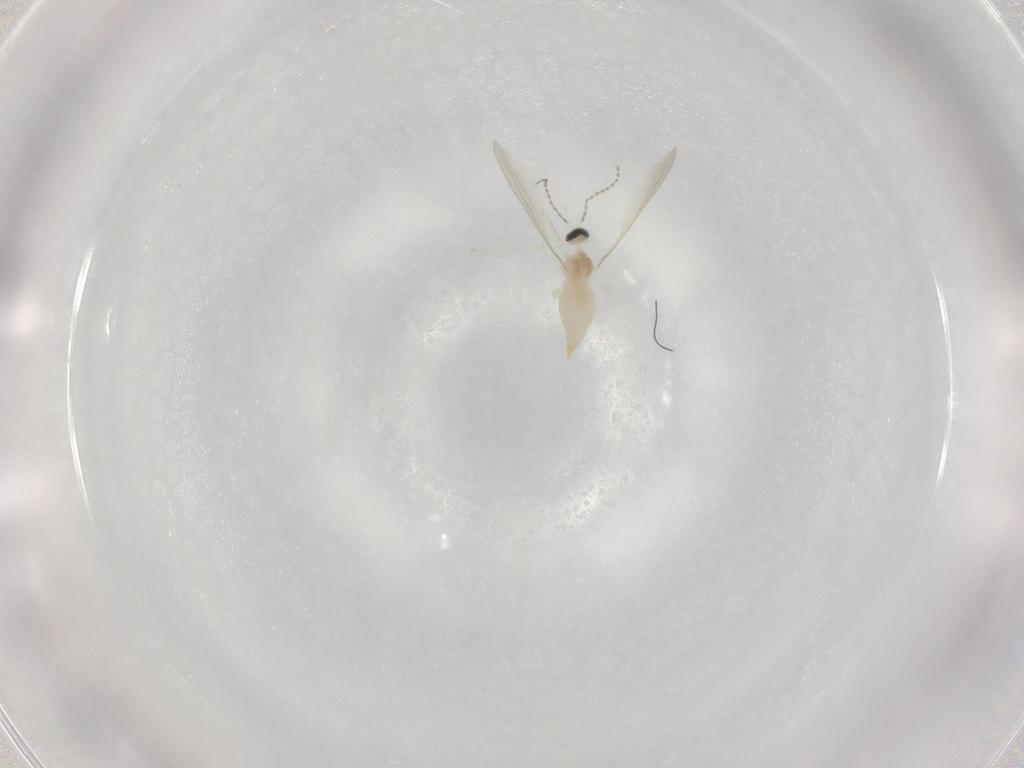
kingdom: Animalia
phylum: Arthropoda
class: Insecta
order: Diptera
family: Cecidomyiidae
